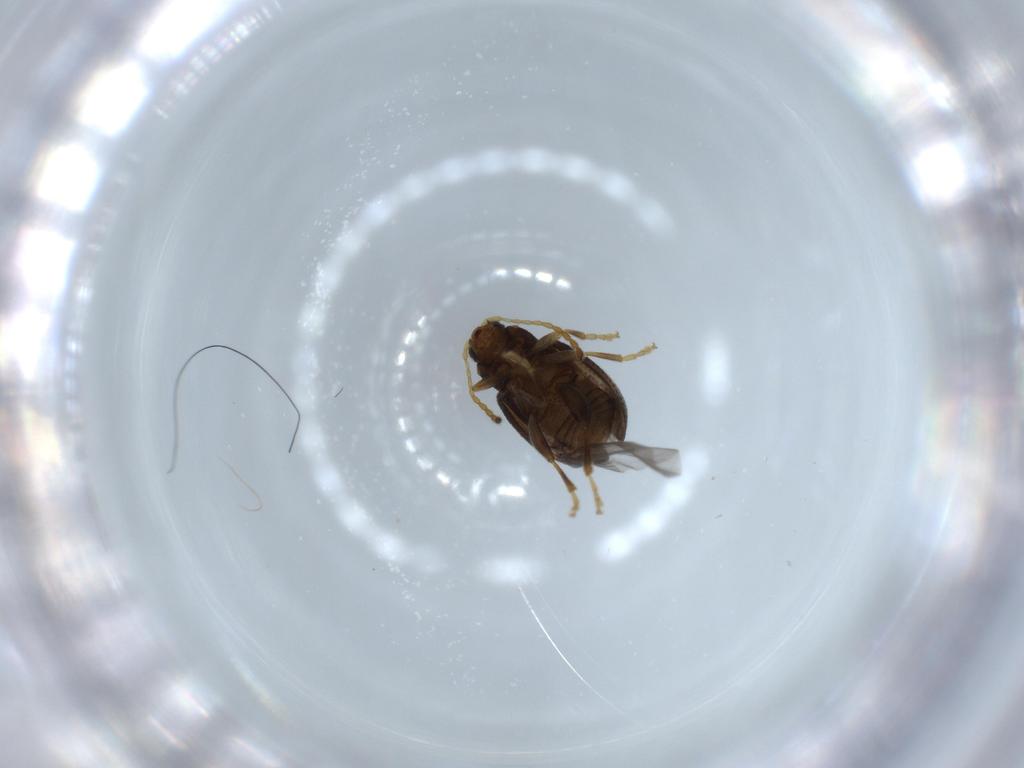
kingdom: Animalia
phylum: Arthropoda
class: Insecta
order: Coleoptera
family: Chrysomelidae
